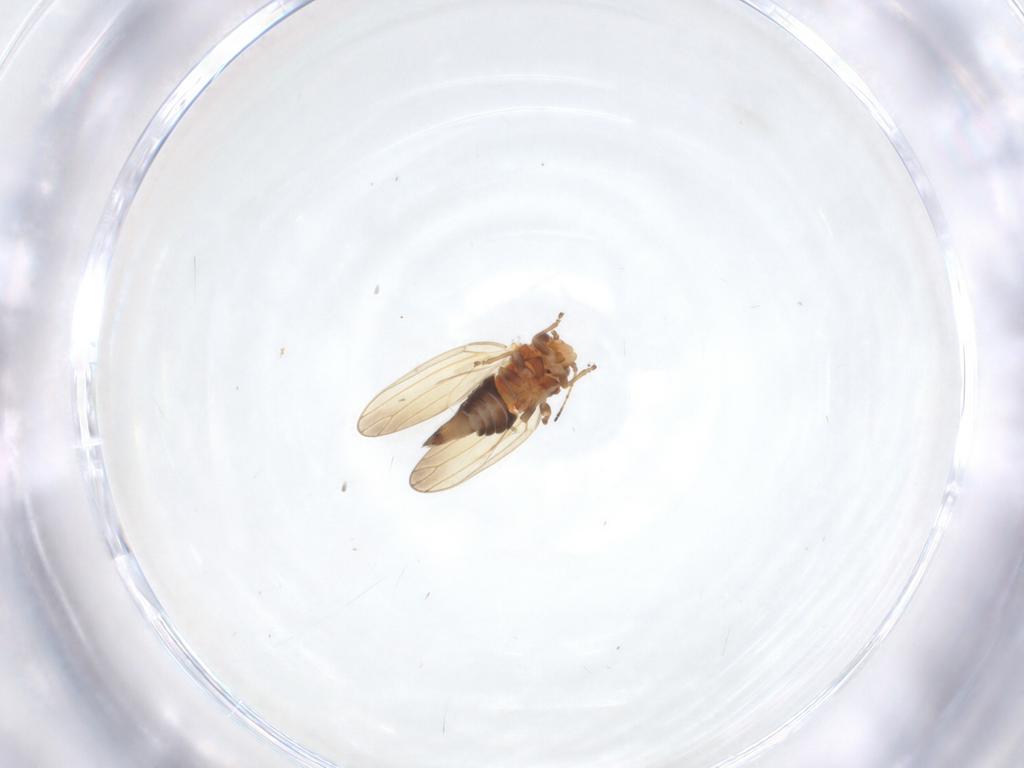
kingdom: Animalia
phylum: Arthropoda
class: Insecta
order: Hemiptera
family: Aphalaridae
